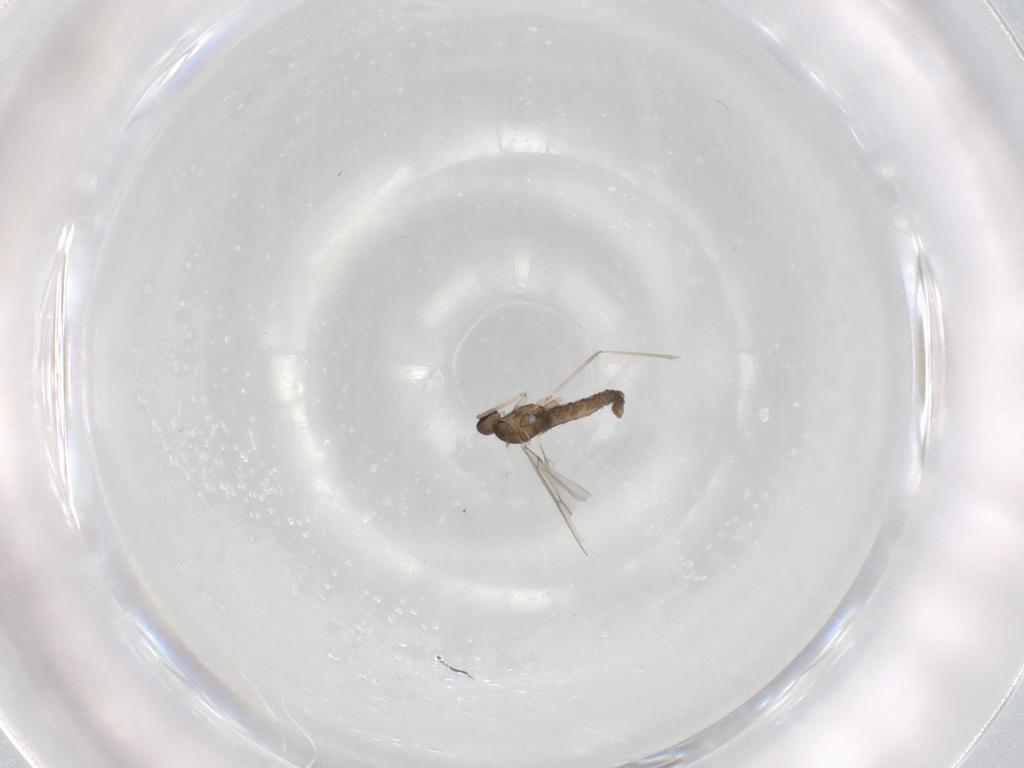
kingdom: Animalia
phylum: Arthropoda
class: Insecta
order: Diptera
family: Cecidomyiidae
